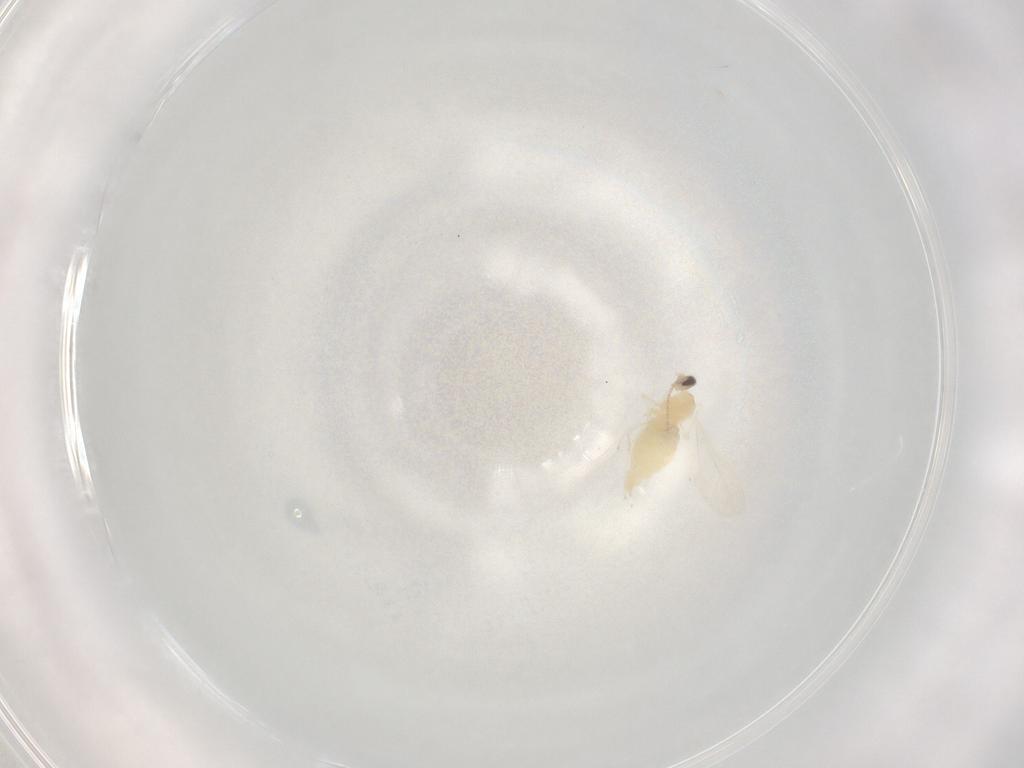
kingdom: Animalia
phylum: Arthropoda
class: Insecta
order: Diptera
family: Cecidomyiidae
